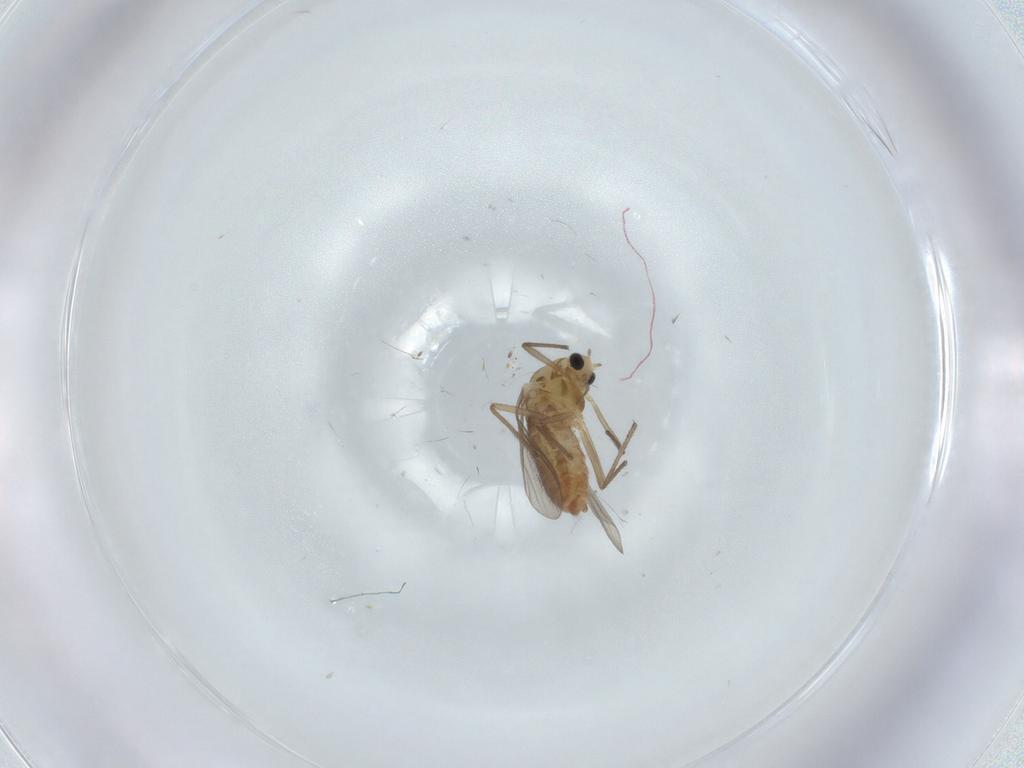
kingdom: Animalia
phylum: Arthropoda
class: Insecta
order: Diptera
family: Chironomidae
